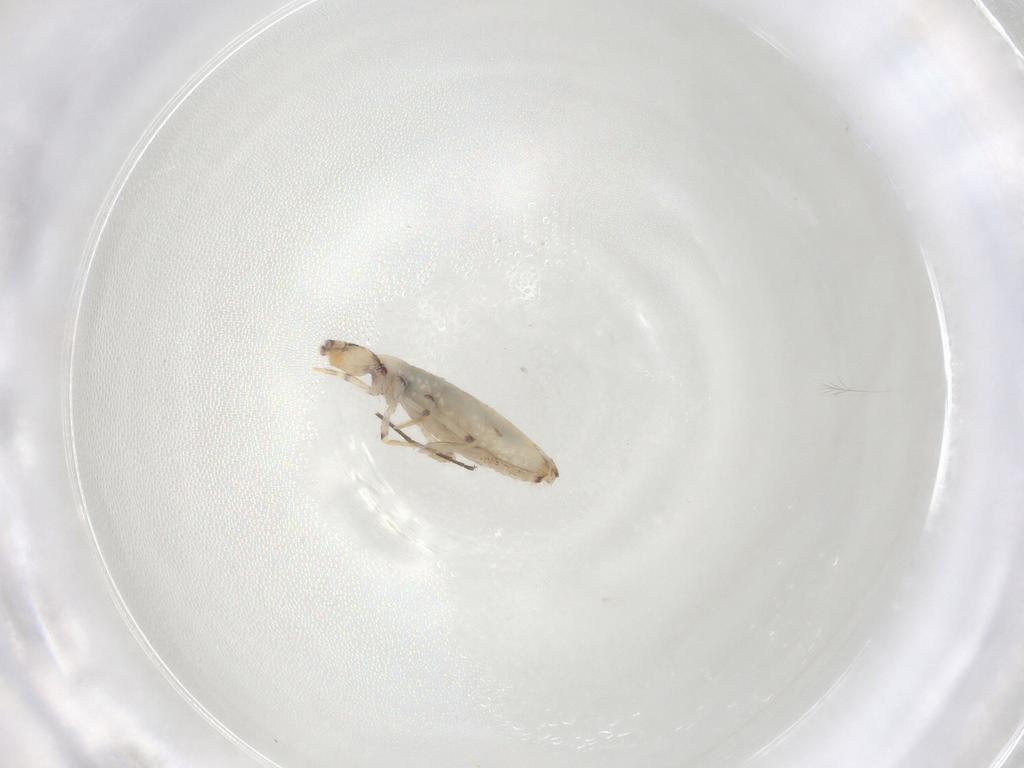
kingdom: Animalia
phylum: Arthropoda
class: Collembola
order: Entomobryomorpha
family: Entomobryidae
